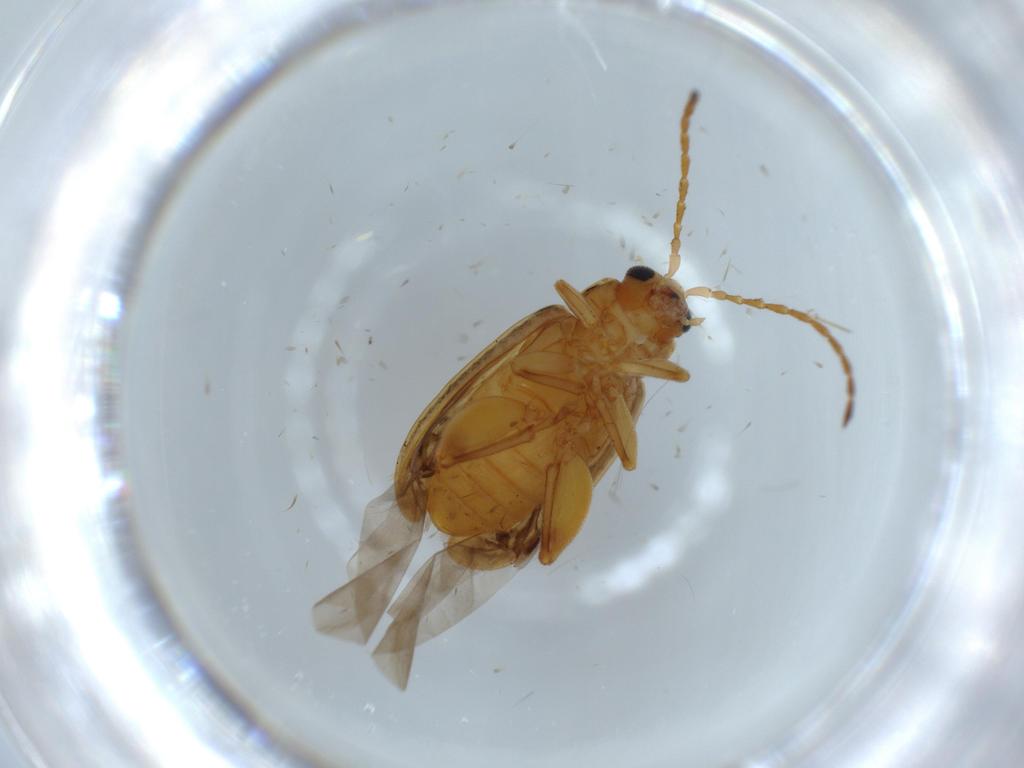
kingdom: Animalia
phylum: Arthropoda
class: Insecta
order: Coleoptera
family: Chrysomelidae
